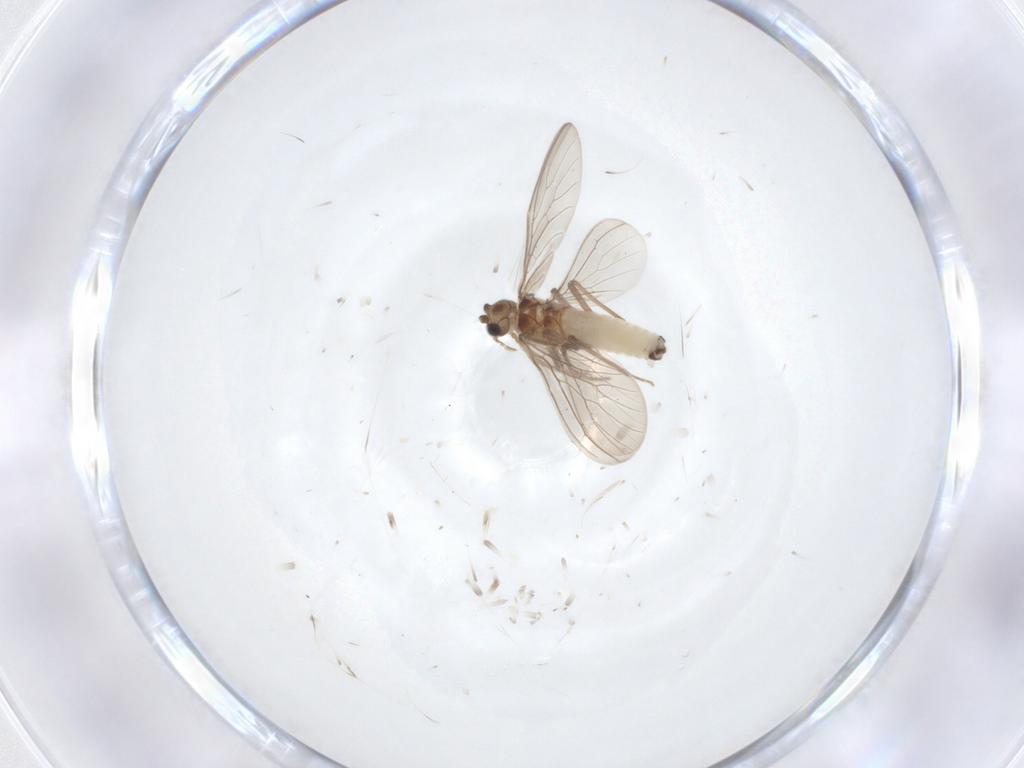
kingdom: Animalia
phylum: Arthropoda
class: Insecta
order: Neuroptera
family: Coniopterygidae
